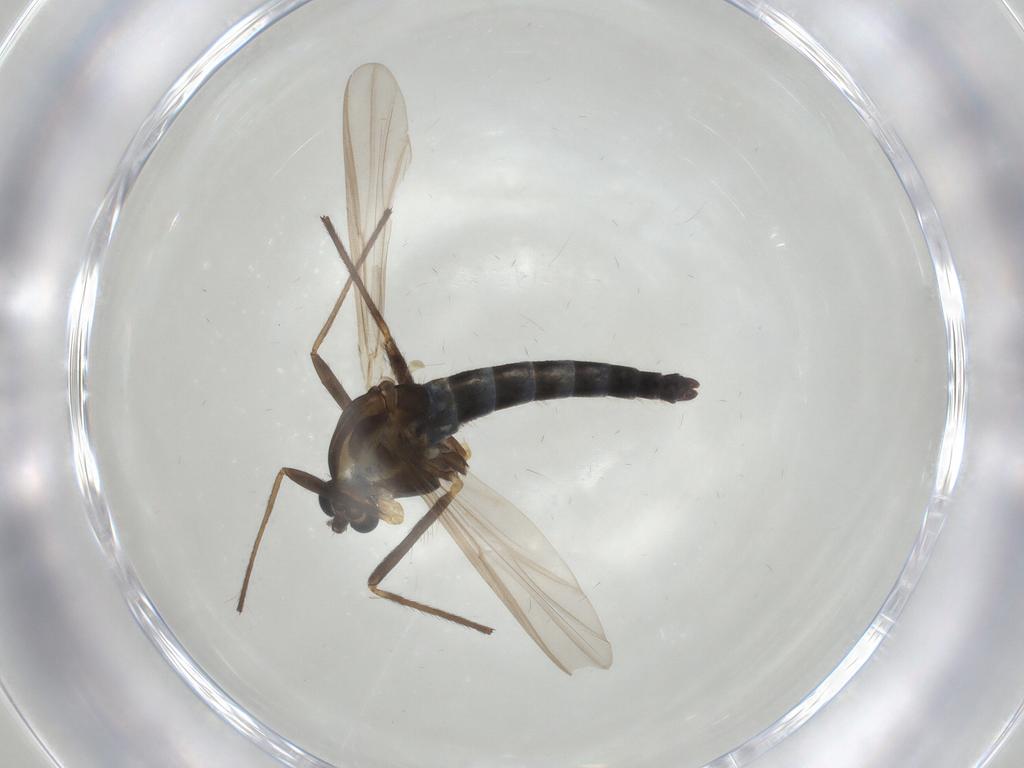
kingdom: Animalia
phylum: Arthropoda
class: Insecta
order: Diptera
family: Chironomidae
